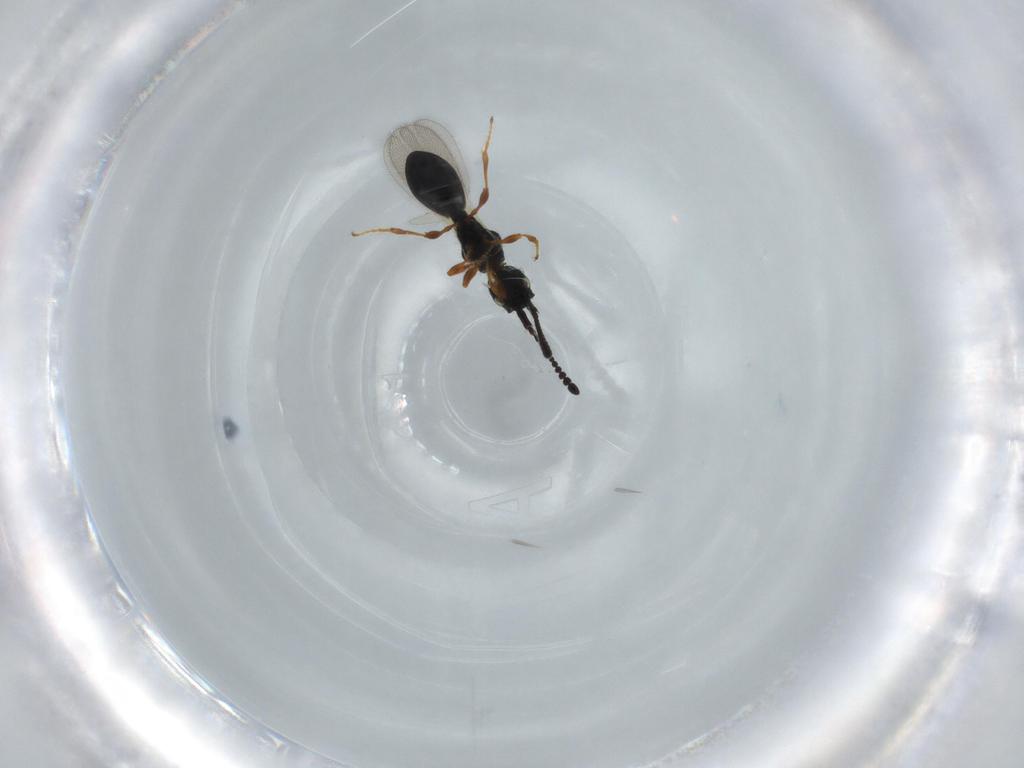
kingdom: Animalia
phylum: Arthropoda
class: Insecta
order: Hymenoptera
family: Diapriidae
